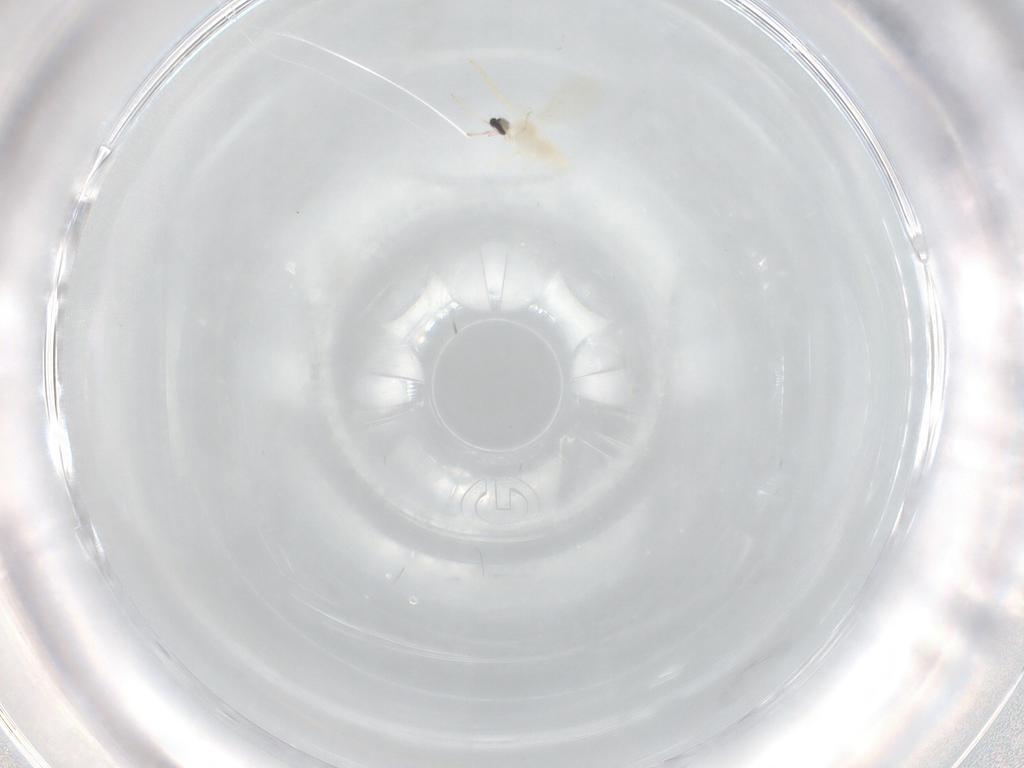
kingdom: Animalia
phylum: Arthropoda
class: Insecta
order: Diptera
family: Cecidomyiidae
